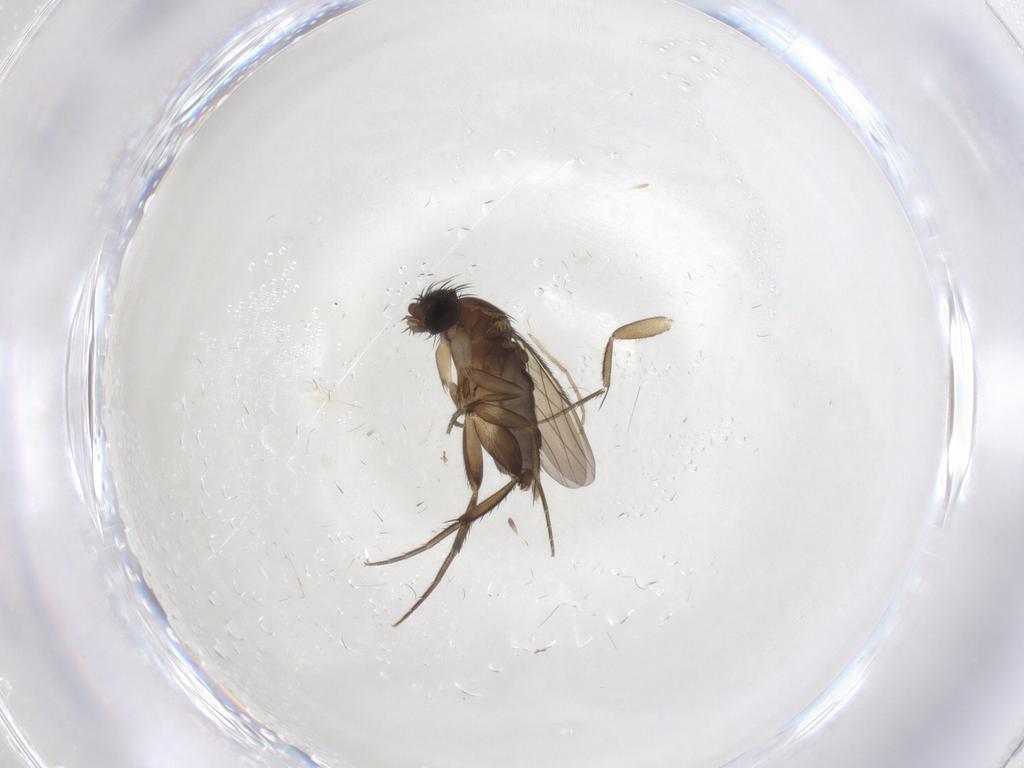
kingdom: Animalia
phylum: Arthropoda
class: Insecta
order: Diptera
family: Phoridae
